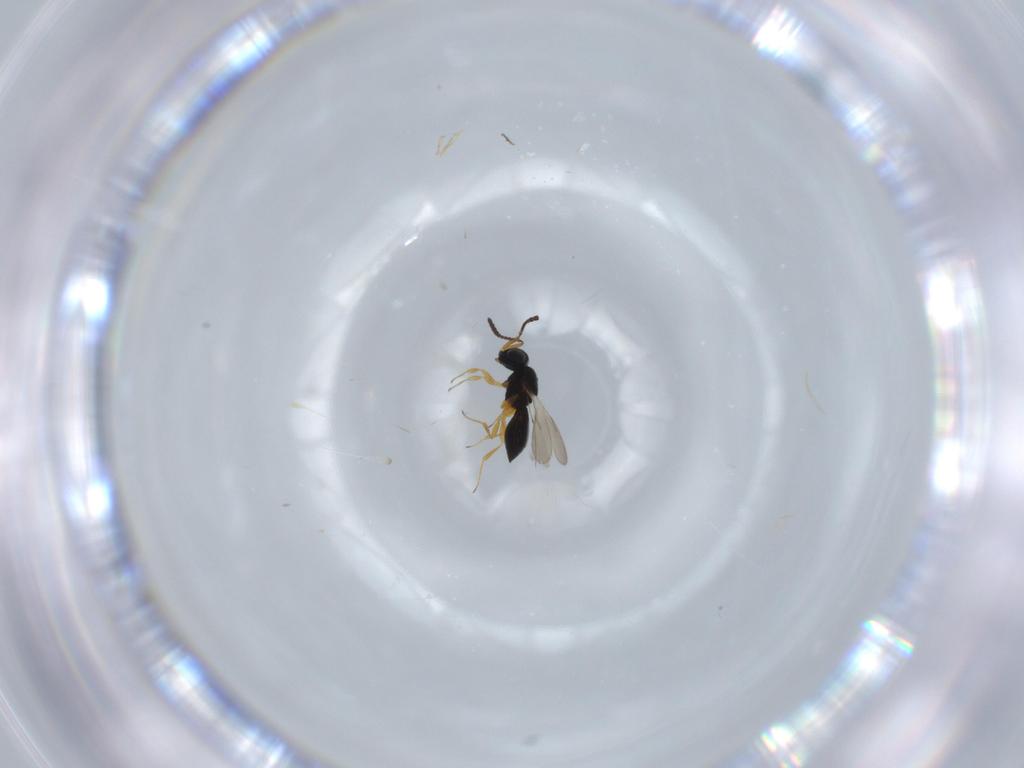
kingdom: Animalia
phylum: Arthropoda
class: Insecta
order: Hymenoptera
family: Scelionidae
